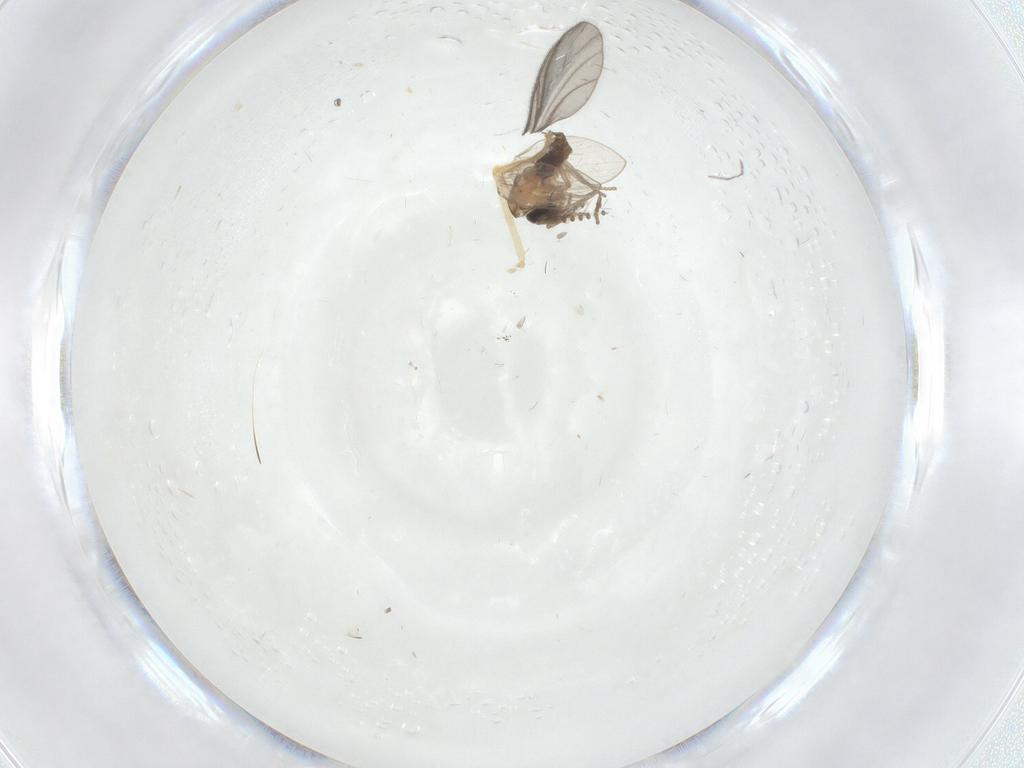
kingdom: Animalia
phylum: Arthropoda
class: Insecta
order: Diptera
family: Psychodidae
